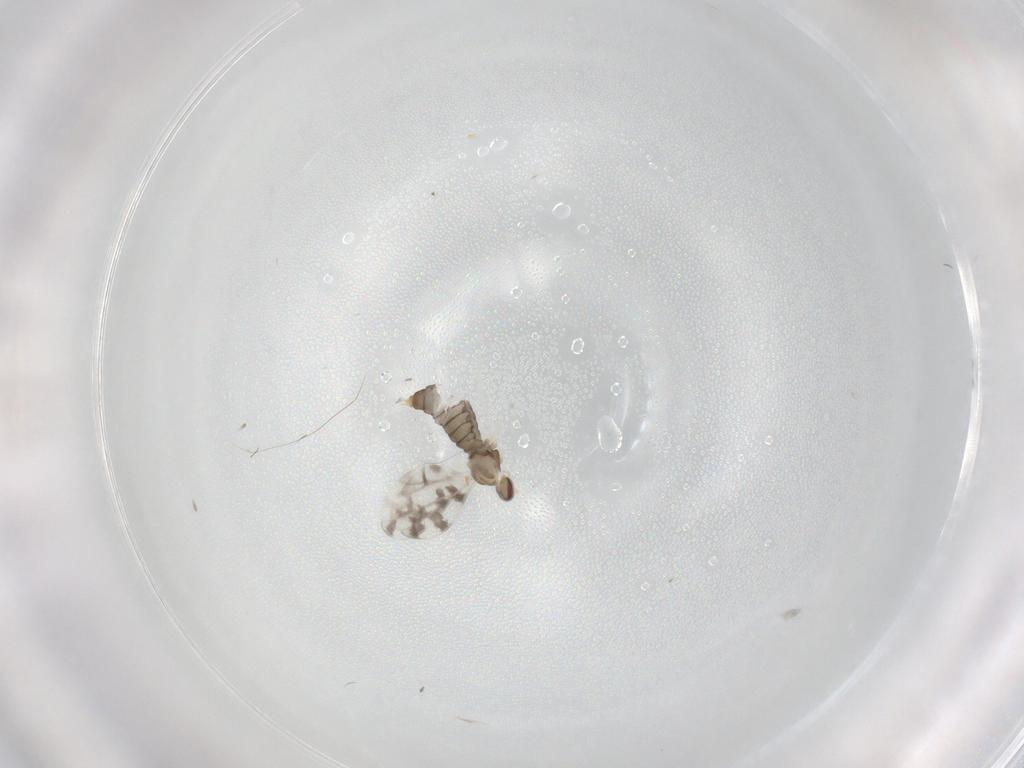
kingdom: Animalia
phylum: Arthropoda
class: Insecta
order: Diptera
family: Cecidomyiidae
